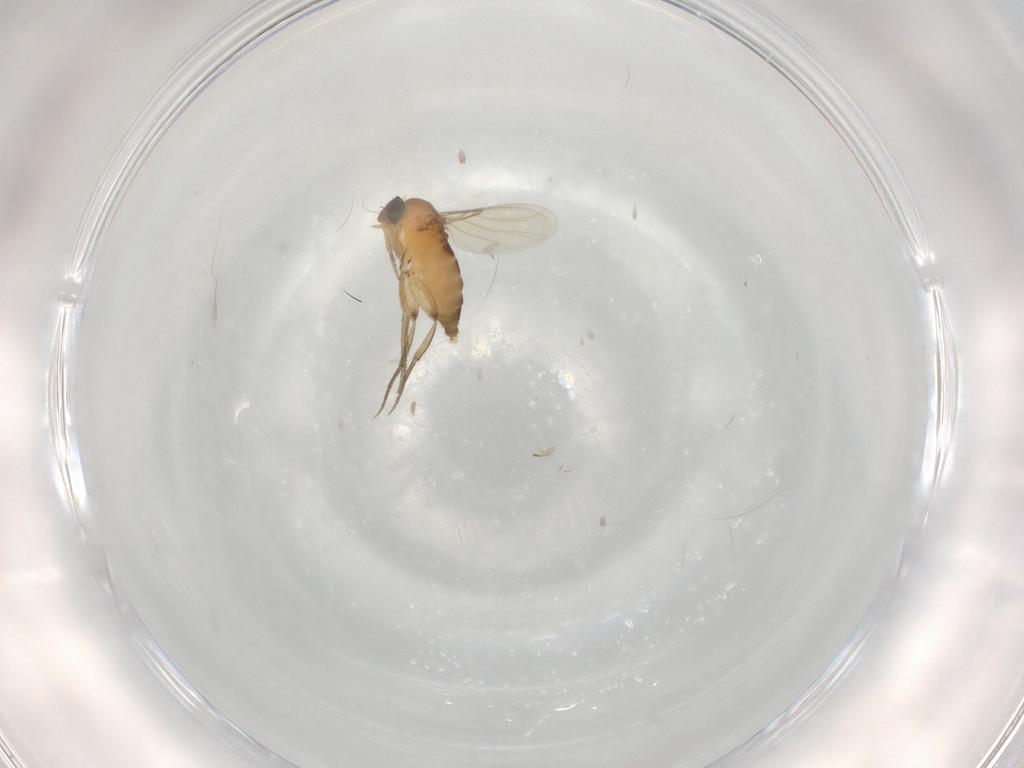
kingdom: Animalia
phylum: Arthropoda
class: Insecta
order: Diptera
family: Phoridae
